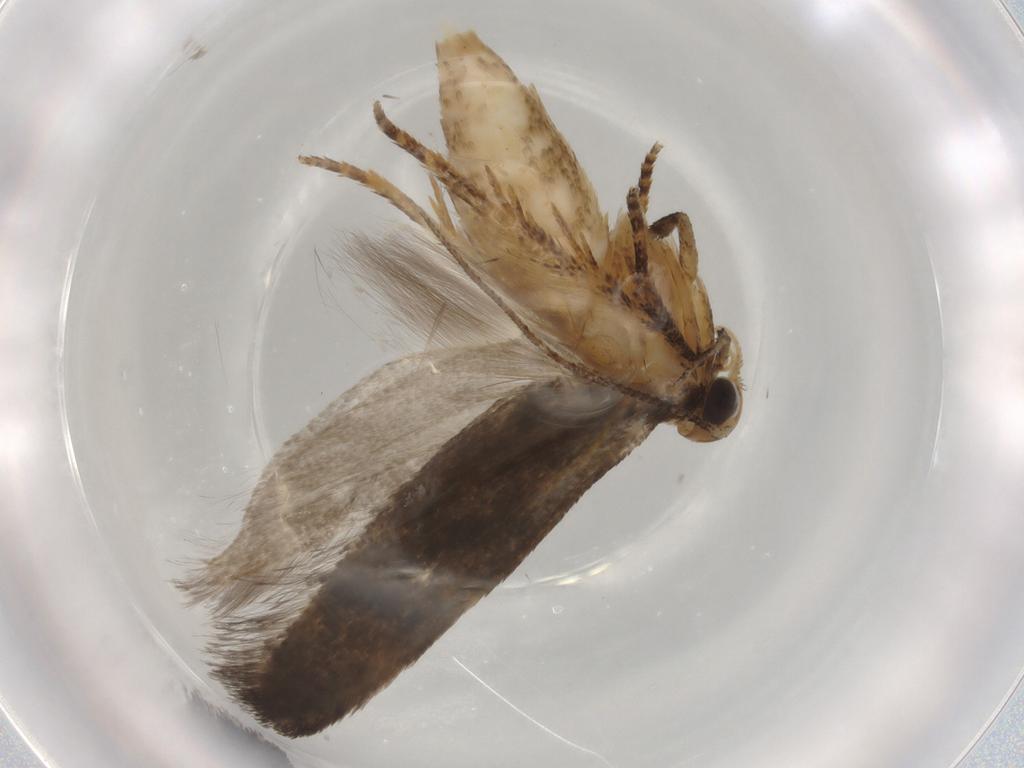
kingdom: Animalia
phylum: Arthropoda
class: Insecta
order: Lepidoptera
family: Gelechiidae
